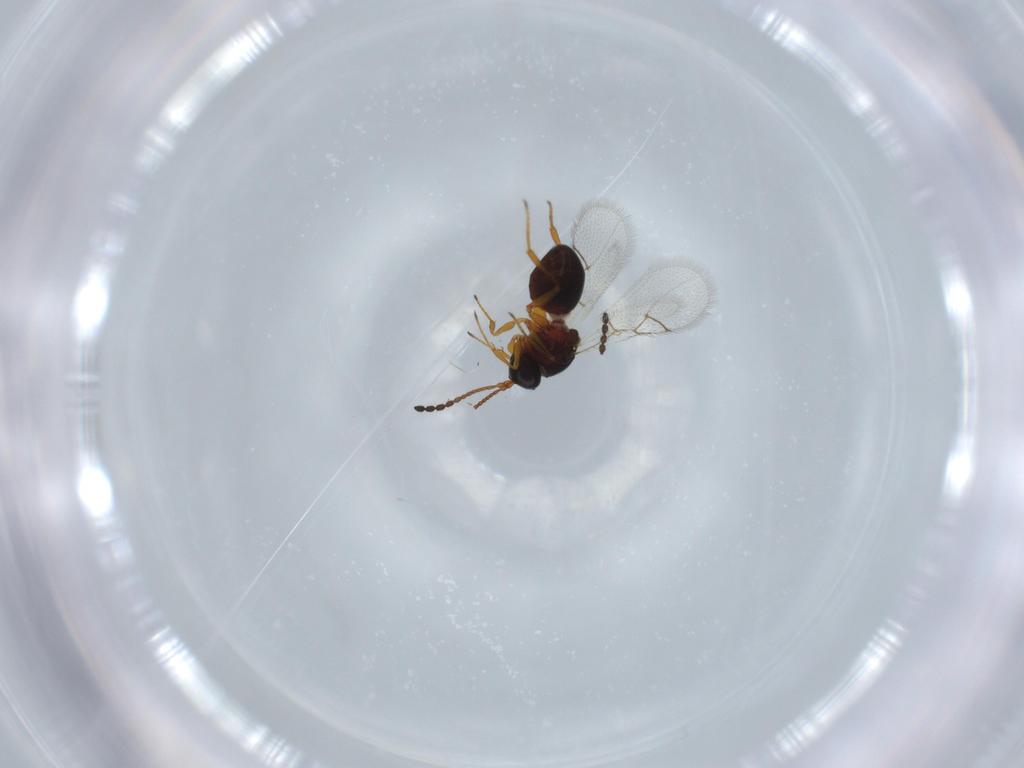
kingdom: Animalia
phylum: Arthropoda
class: Insecta
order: Hymenoptera
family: Figitidae
